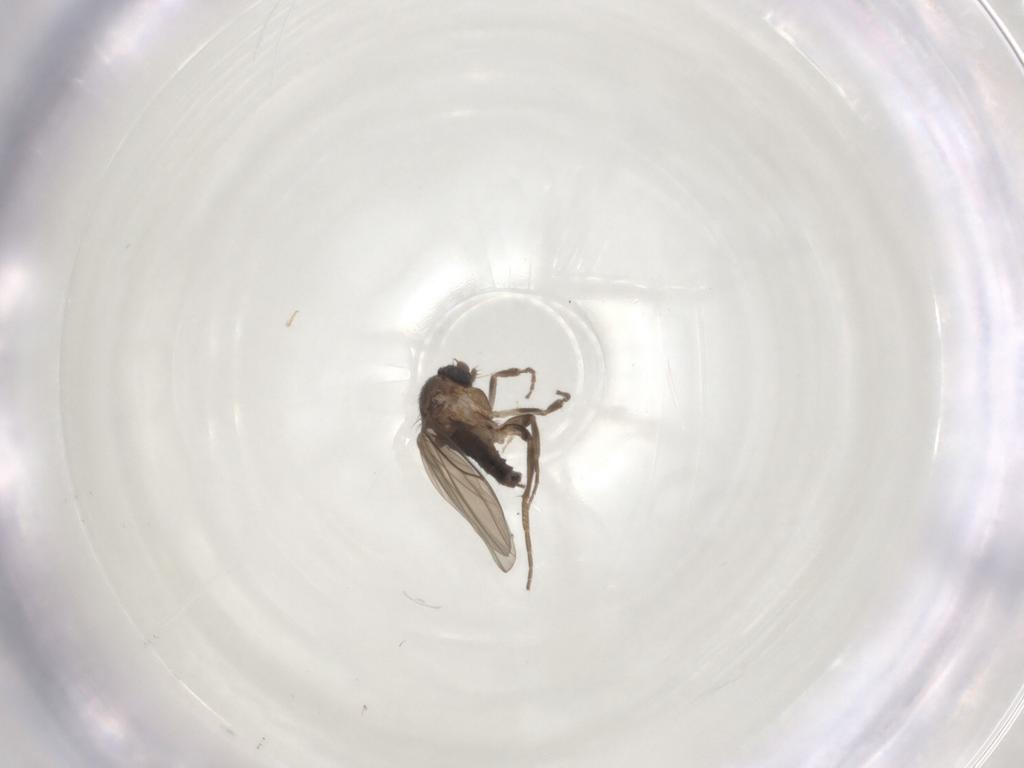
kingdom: Animalia
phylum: Arthropoda
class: Insecta
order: Diptera
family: Cecidomyiidae
